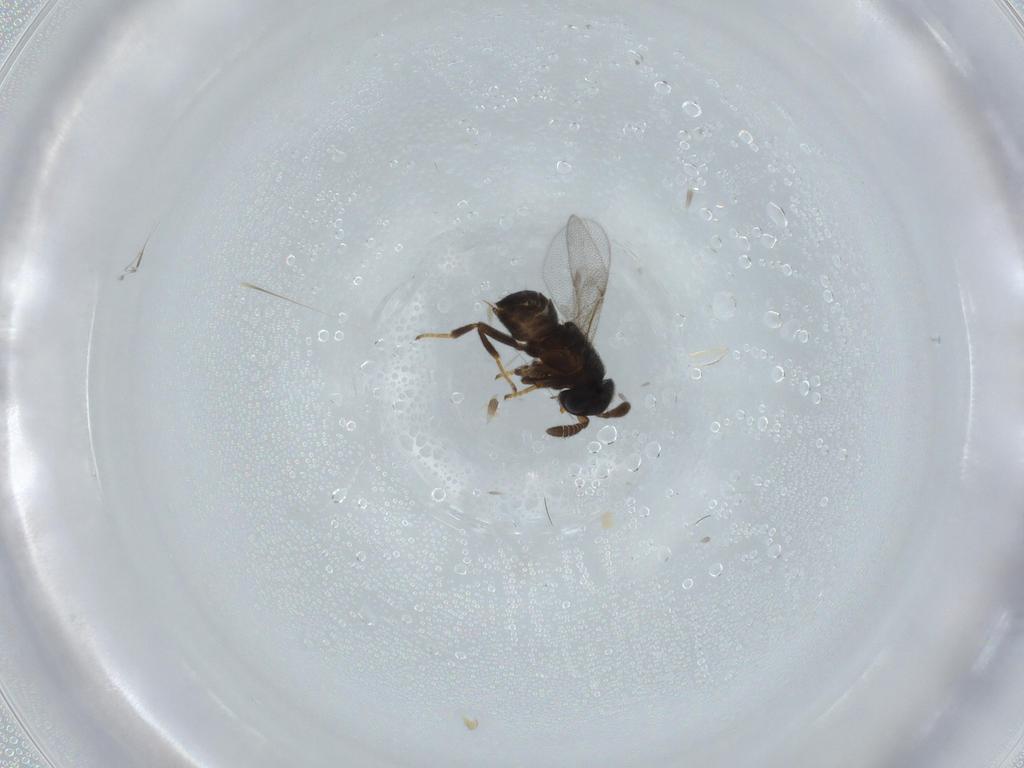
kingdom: Animalia
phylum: Arthropoda
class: Insecta
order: Hymenoptera
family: Encyrtidae
